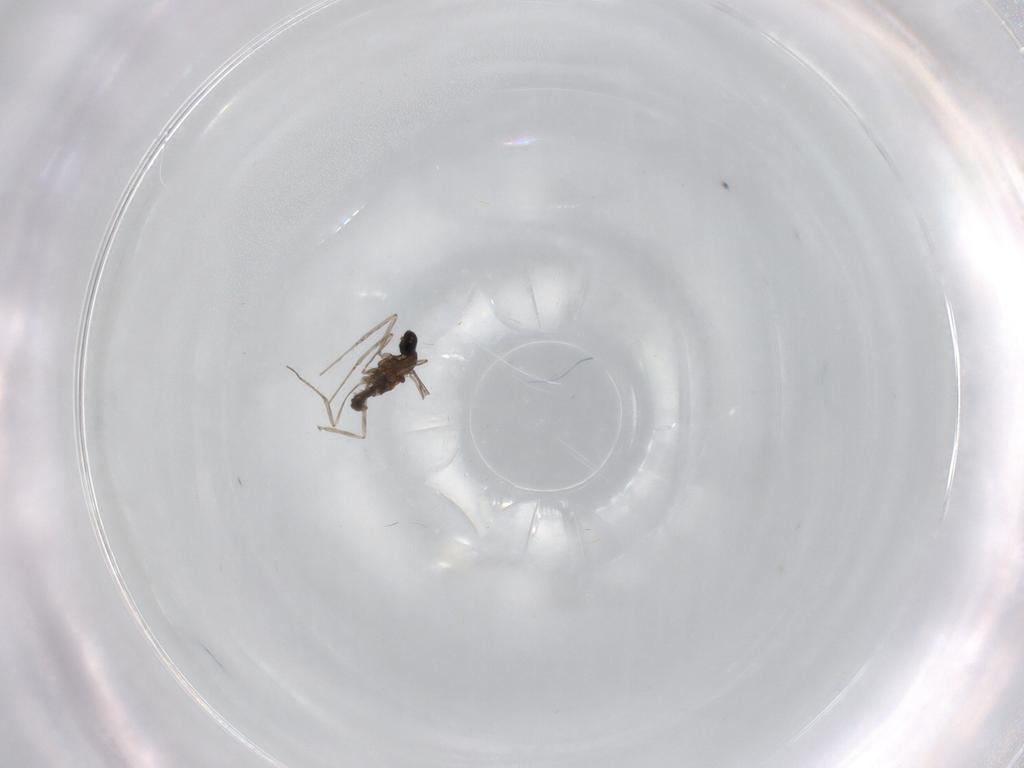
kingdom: Animalia
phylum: Arthropoda
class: Insecta
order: Diptera
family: Cecidomyiidae
